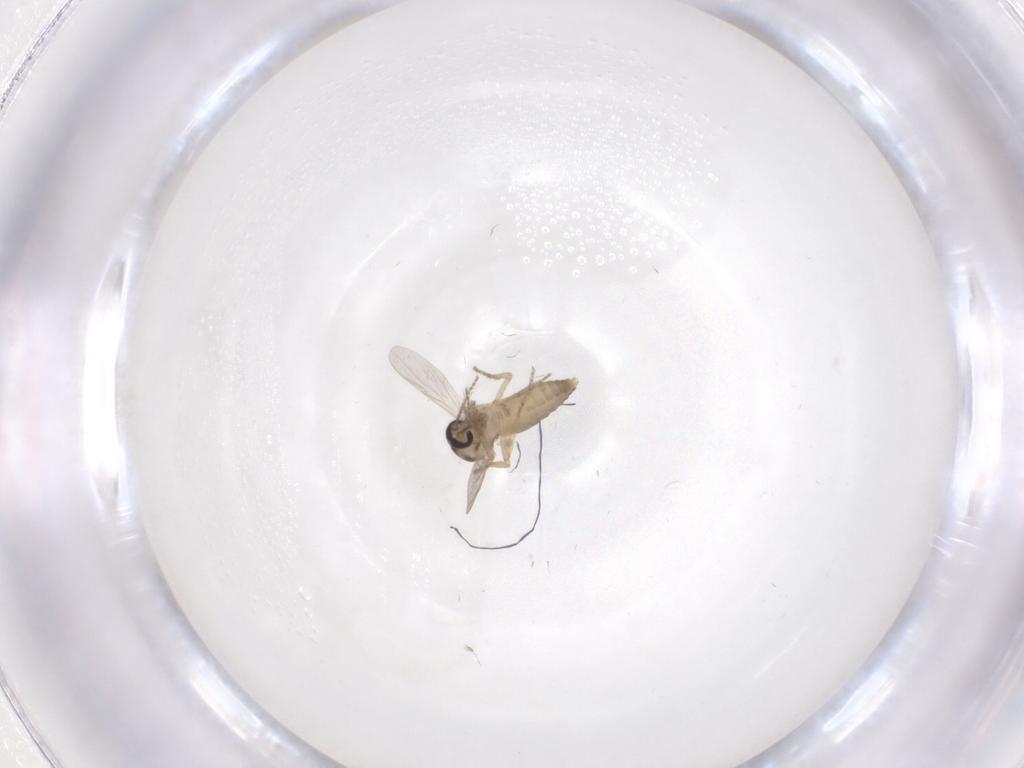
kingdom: Animalia
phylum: Arthropoda
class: Insecta
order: Diptera
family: Ceratopogonidae
